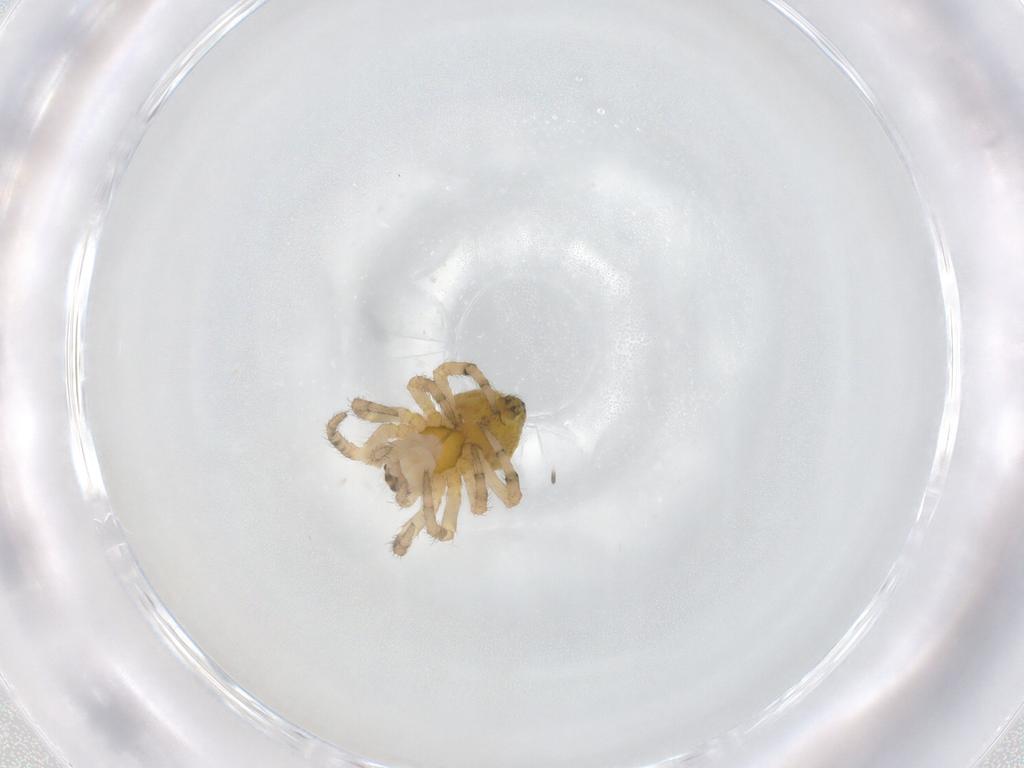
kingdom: Animalia
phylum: Arthropoda
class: Arachnida
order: Araneae
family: Araneidae
